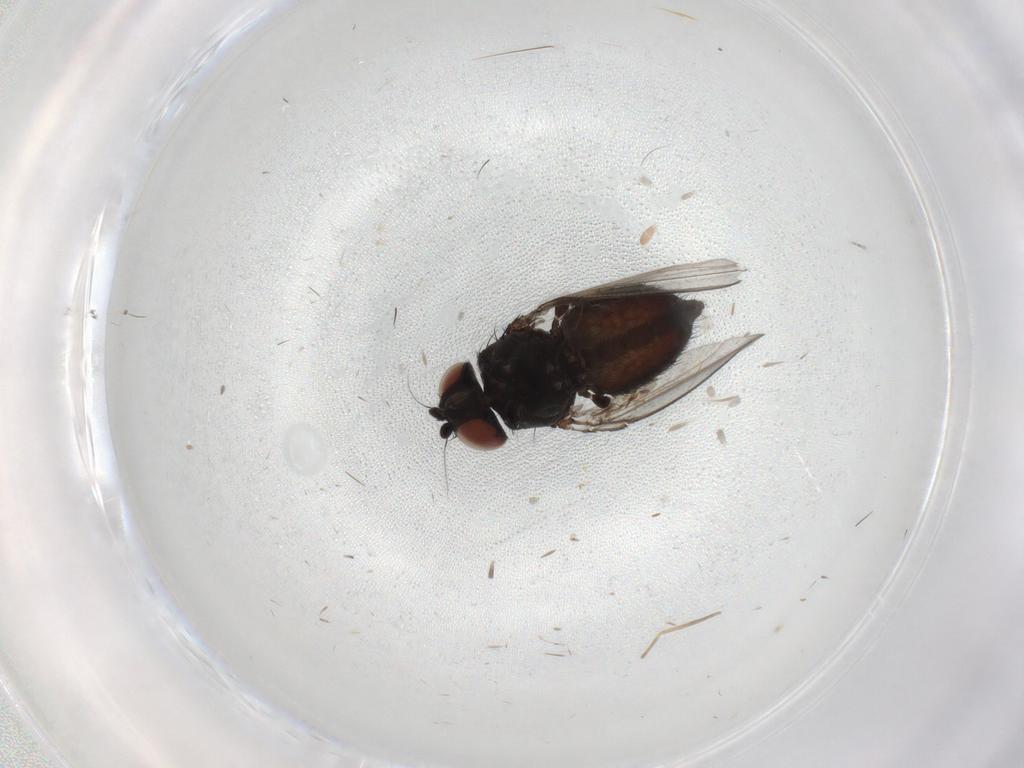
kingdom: Animalia
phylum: Arthropoda
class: Insecta
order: Diptera
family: Milichiidae
